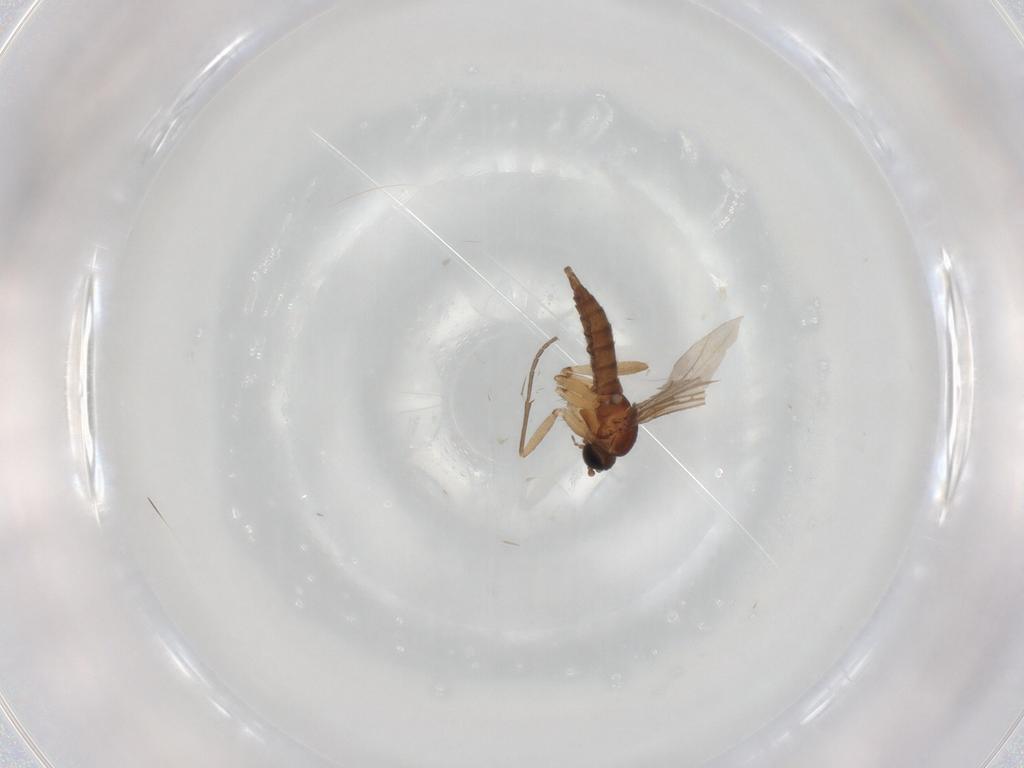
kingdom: Animalia
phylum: Arthropoda
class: Insecta
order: Diptera
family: Sciaridae
